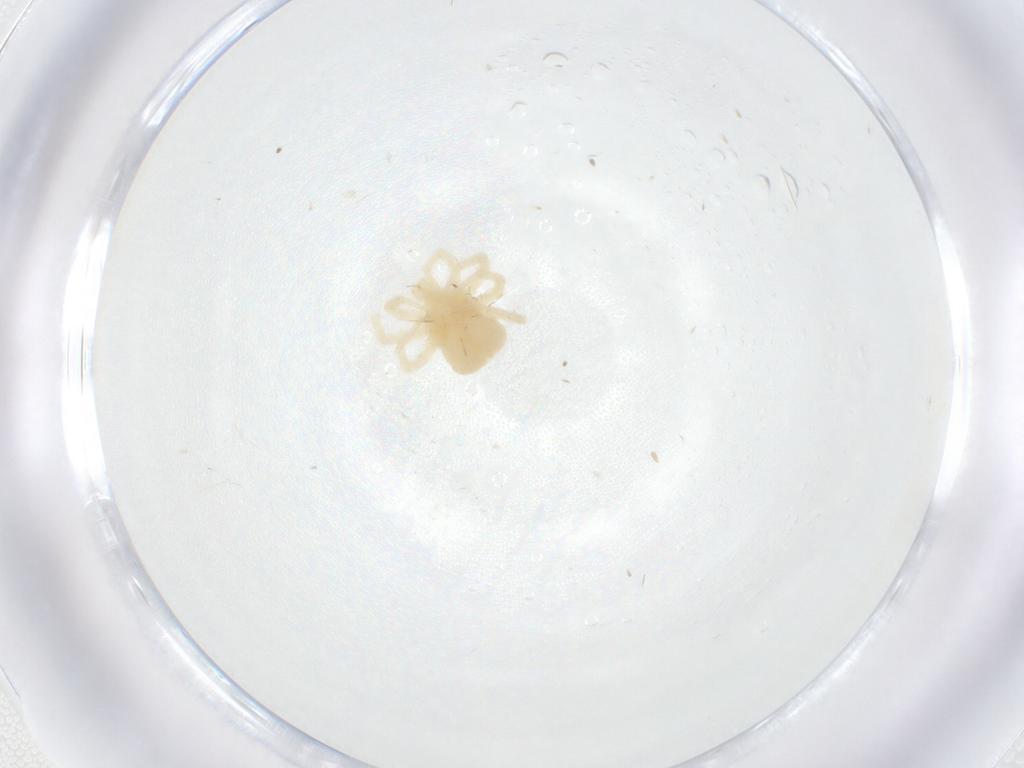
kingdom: Animalia
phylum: Arthropoda
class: Arachnida
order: Trombidiformes
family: Anystidae
